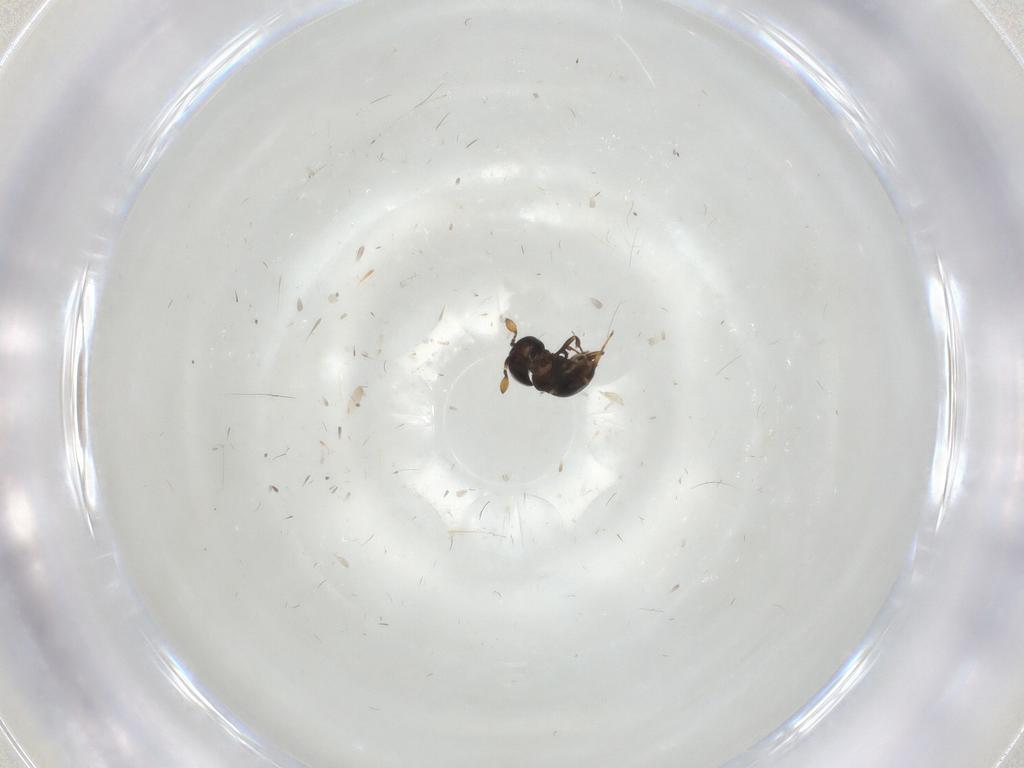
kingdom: Animalia
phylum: Arthropoda
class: Insecta
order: Hymenoptera
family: Scelionidae
